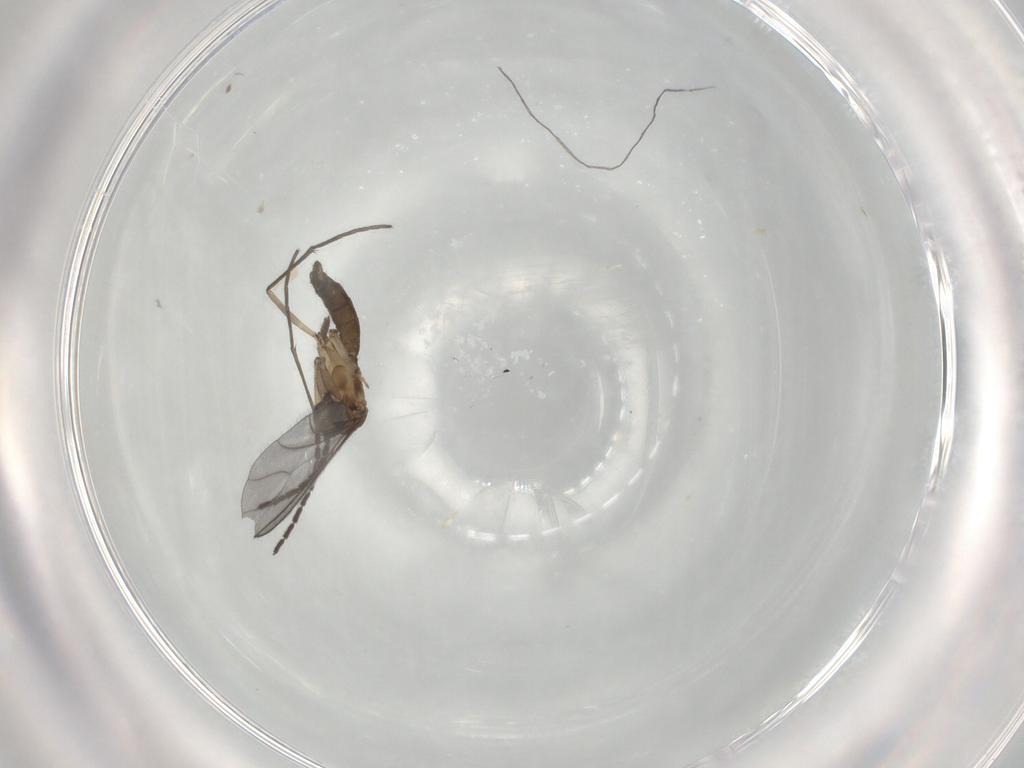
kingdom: Animalia
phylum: Arthropoda
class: Insecta
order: Diptera
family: Sciaridae
